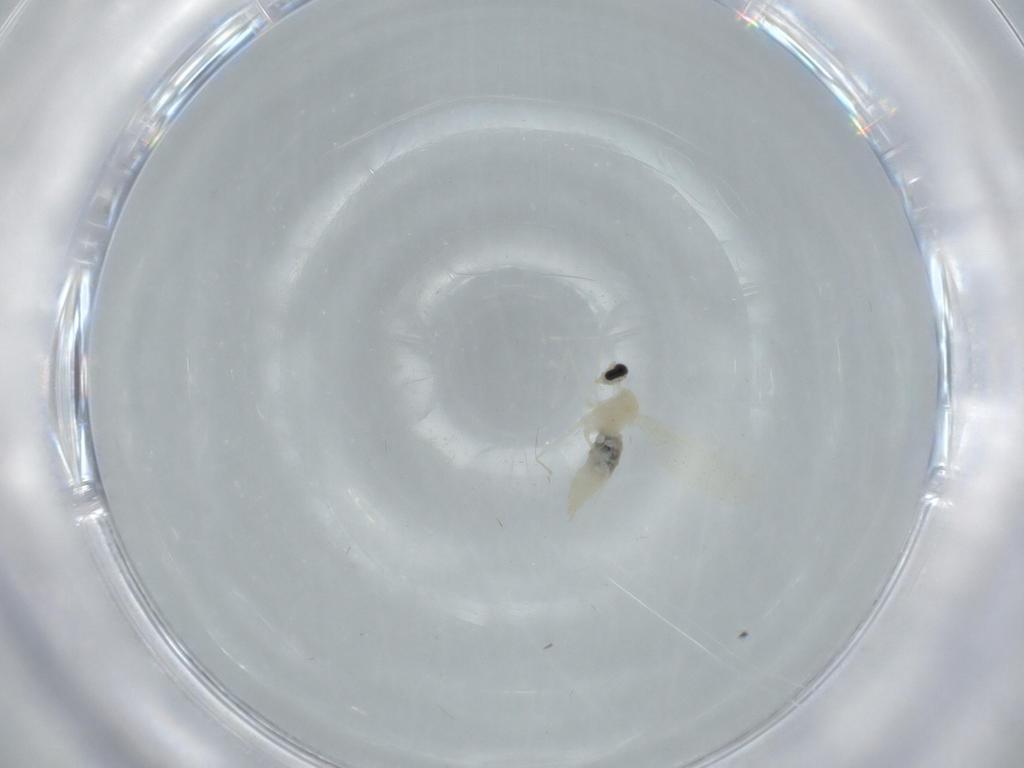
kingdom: Animalia
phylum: Arthropoda
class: Insecta
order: Diptera
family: Cecidomyiidae
